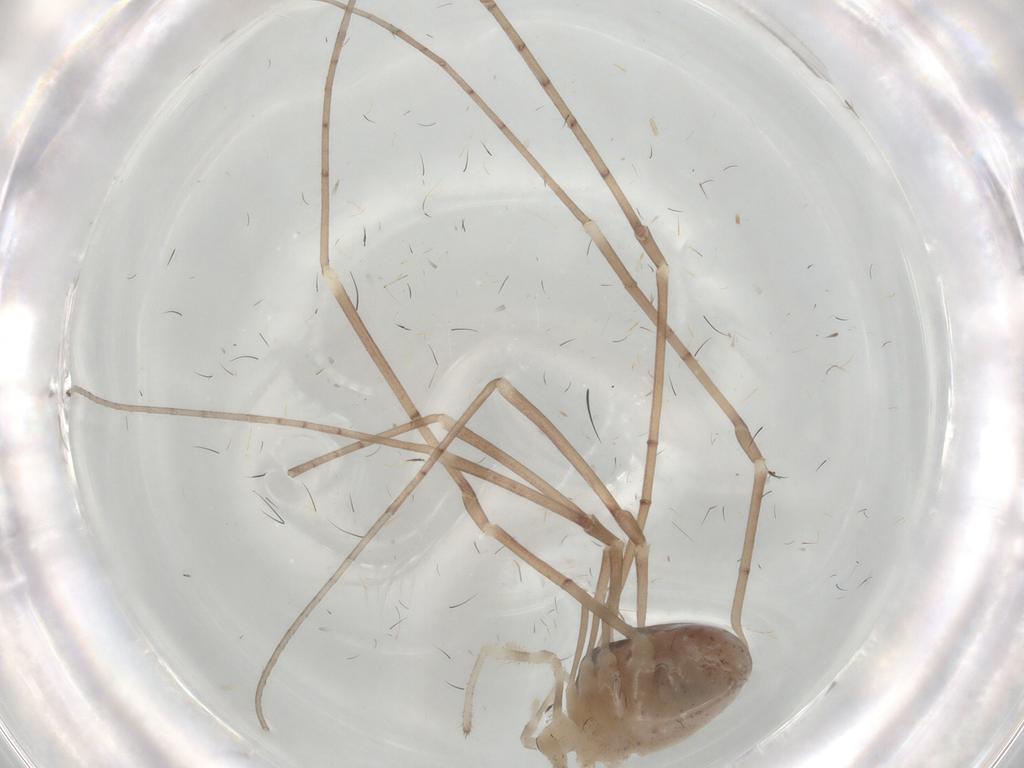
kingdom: Animalia
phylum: Arthropoda
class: Arachnida
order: Opiliones
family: Sclerosomatidae
